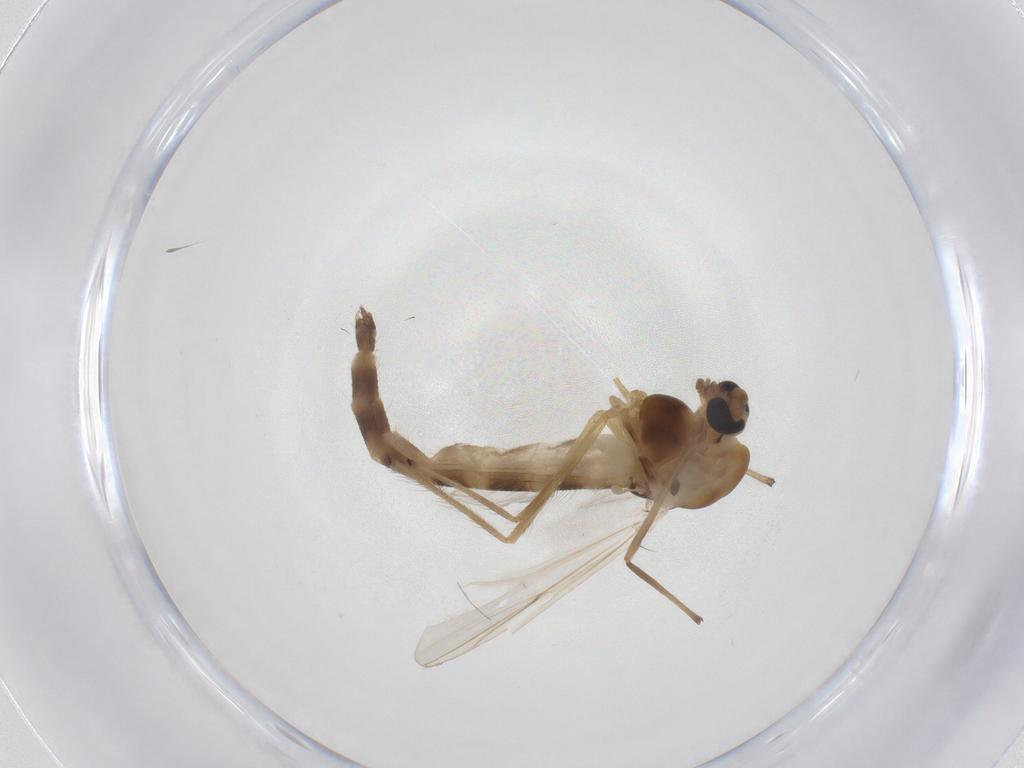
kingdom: Animalia
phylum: Arthropoda
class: Insecta
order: Diptera
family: Chironomidae
